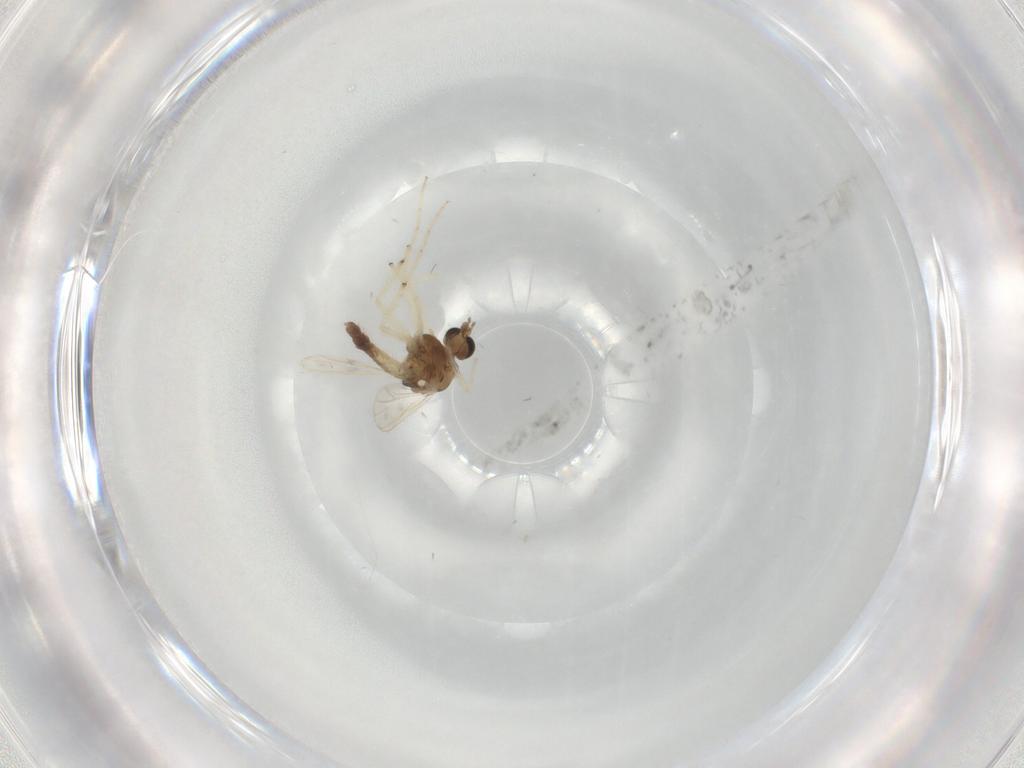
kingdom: Animalia
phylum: Arthropoda
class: Insecta
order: Diptera
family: Chironomidae
